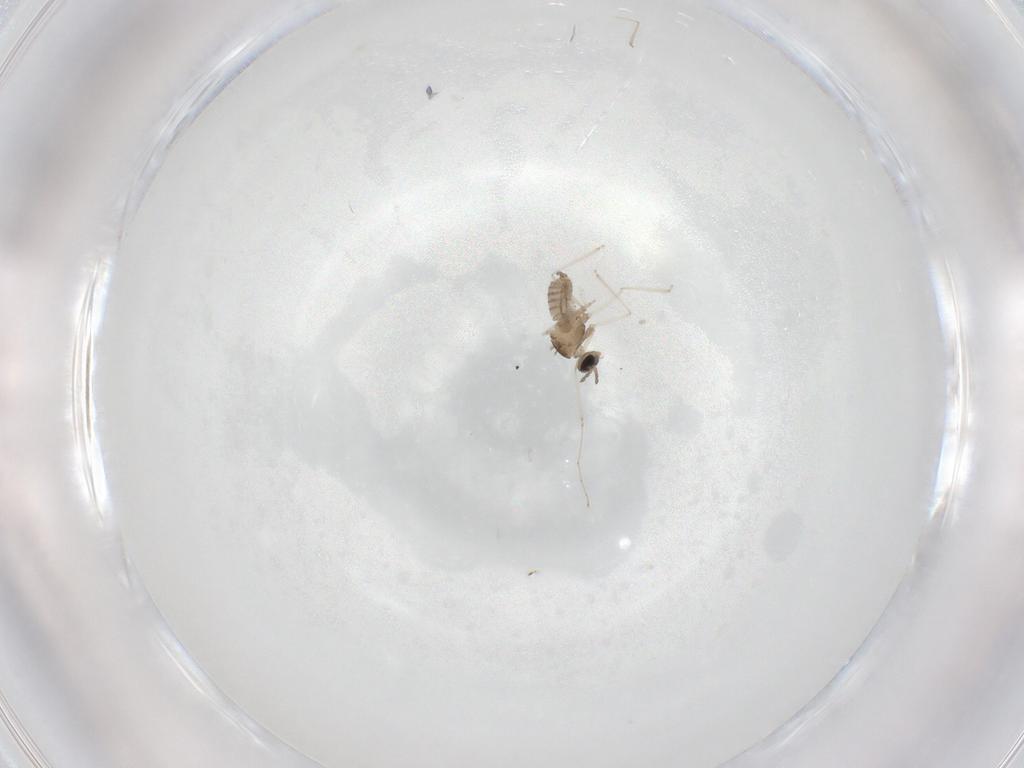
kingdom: Animalia
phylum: Arthropoda
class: Insecta
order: Diptera
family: Cecidomyiidae
